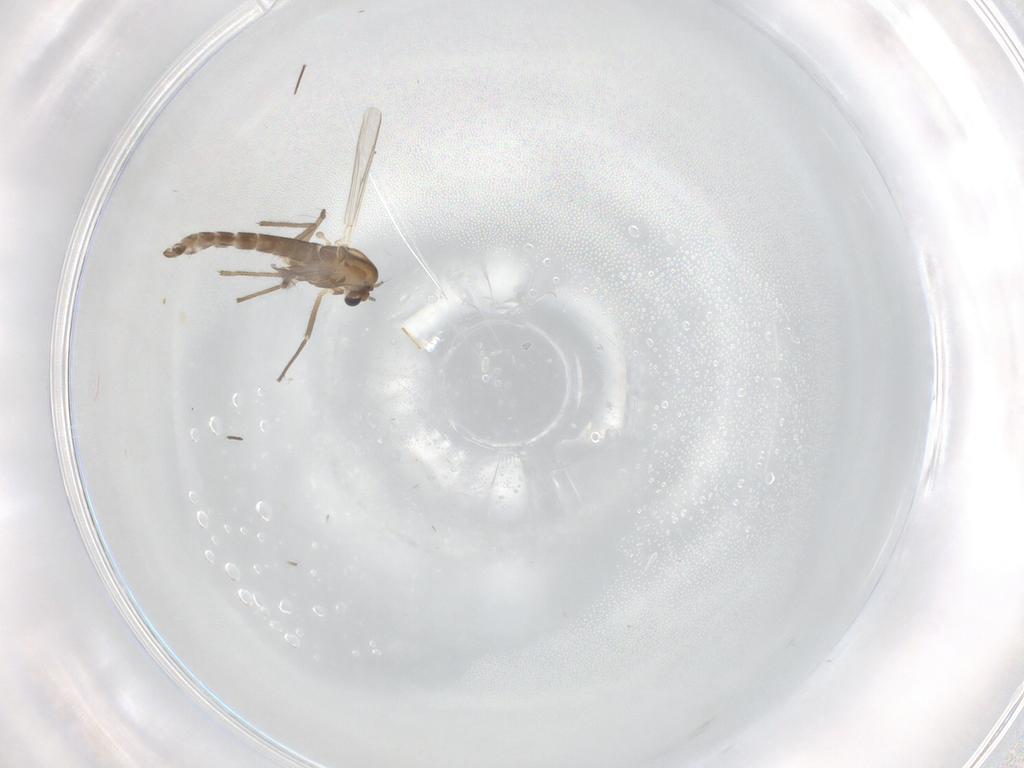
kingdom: Animalia
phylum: Arthropoda
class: Insecta
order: Diptera
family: Chironomidae
